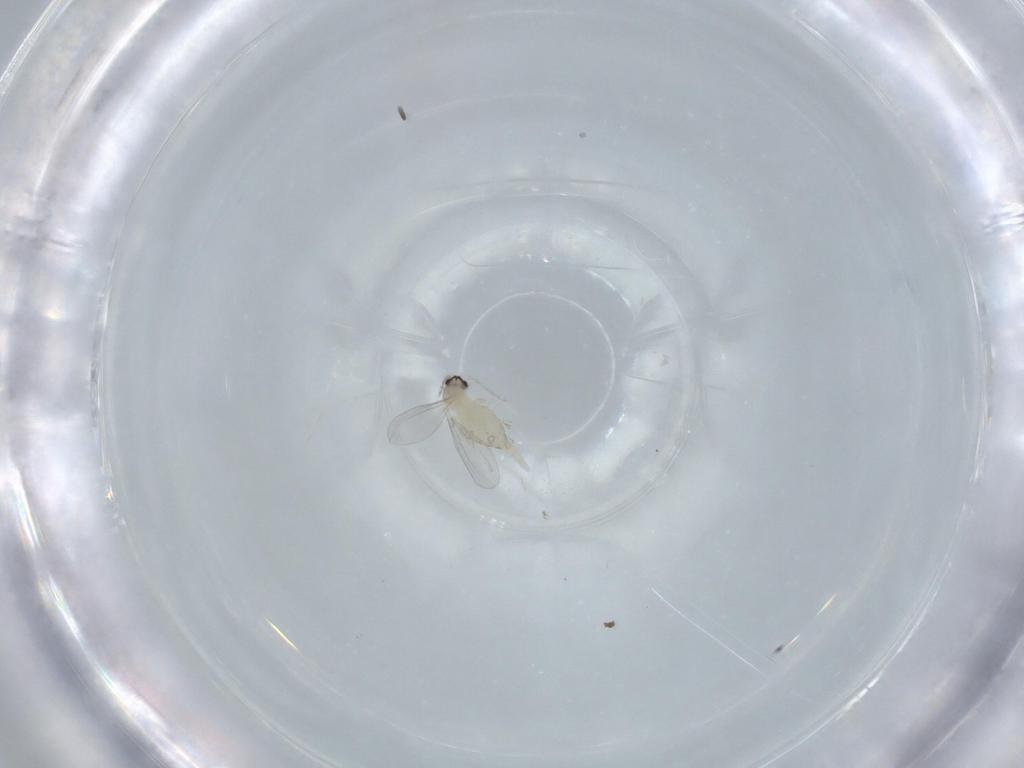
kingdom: Animalia
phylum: Arthropoda
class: Insecta
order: Diptera
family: Cecidomyiidae
